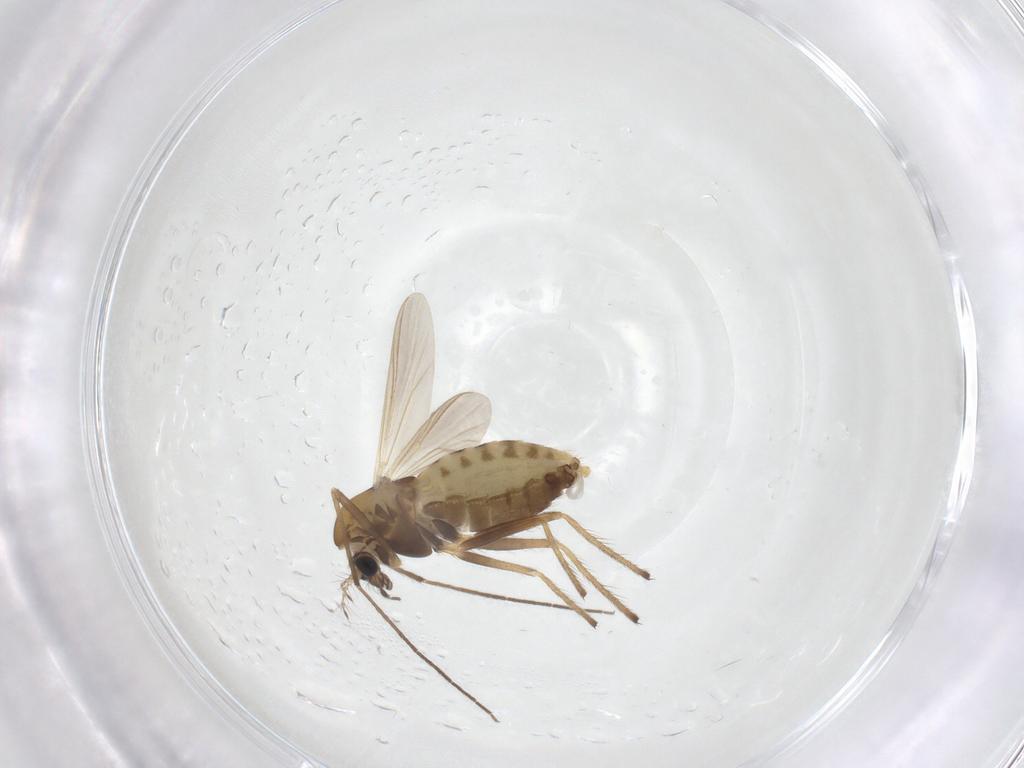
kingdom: Animalia
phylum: Arthropoda
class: Insecta
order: Diptera
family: Chironomidae
